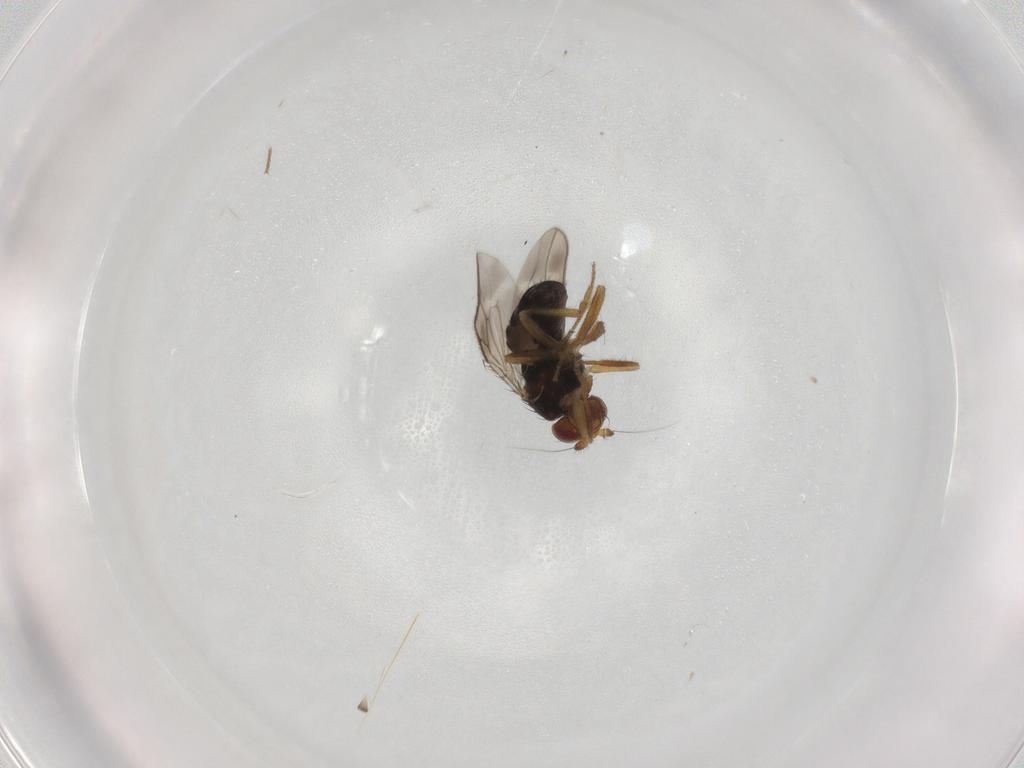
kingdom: Animalia
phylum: Arthropoda
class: Insecta
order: Diptera
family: Sphaeroceridae
